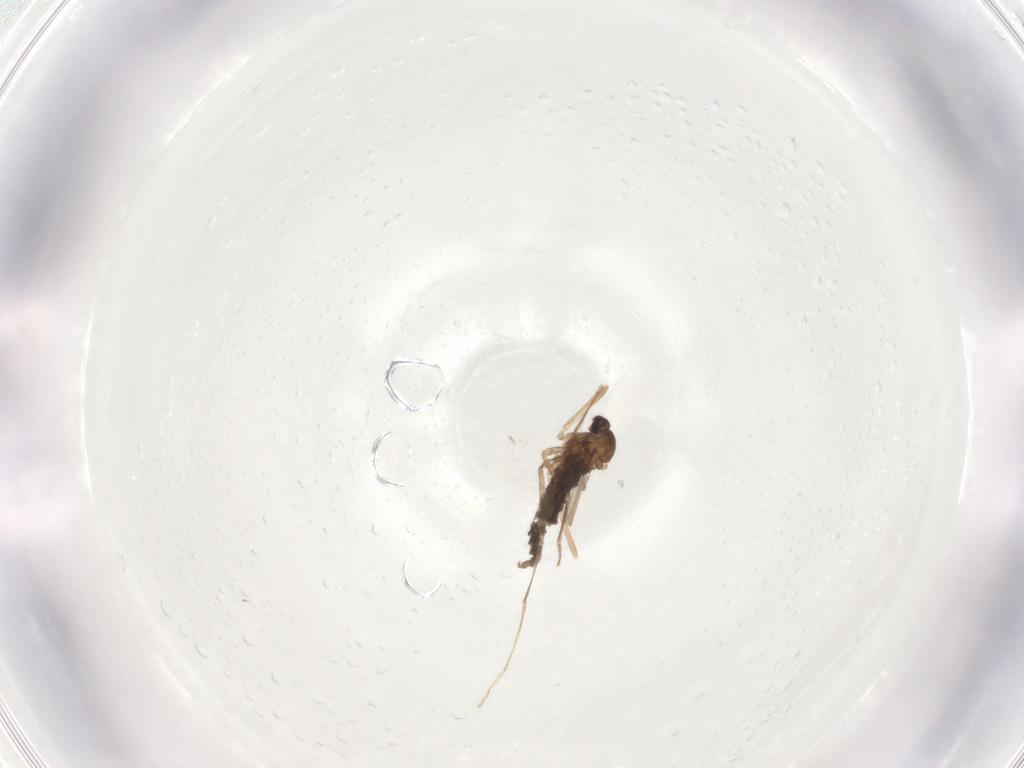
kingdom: Animalia
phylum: Arthropoda
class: Insecta
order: Diptera
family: Cecidomyiidae
